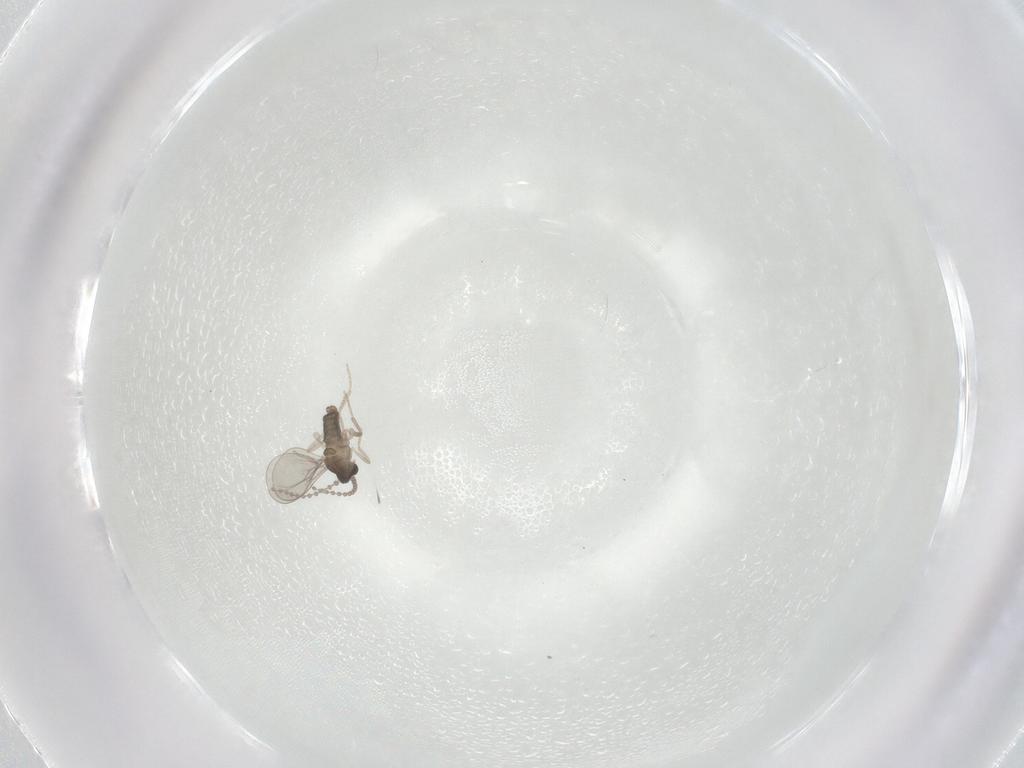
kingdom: Animalia
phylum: Arthropoda
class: Insecta
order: Diptera
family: Cecidomyiidae
